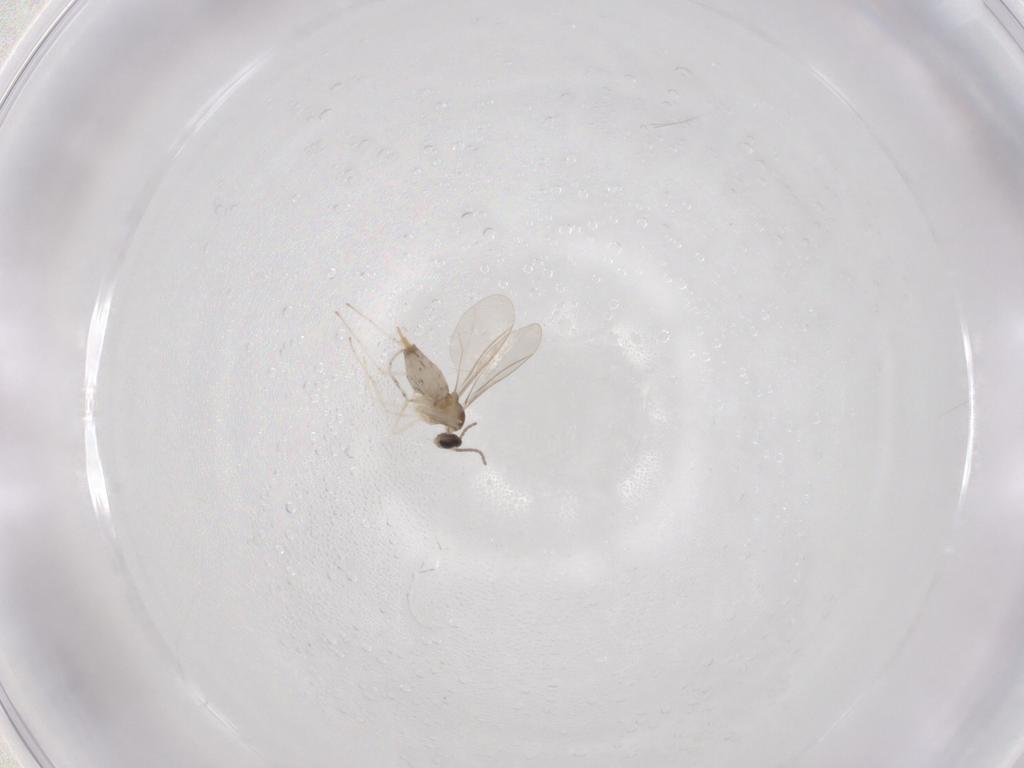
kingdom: Animalia
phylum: Arthropoda
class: Insecta
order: Diptera
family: Cecidomyiidae
